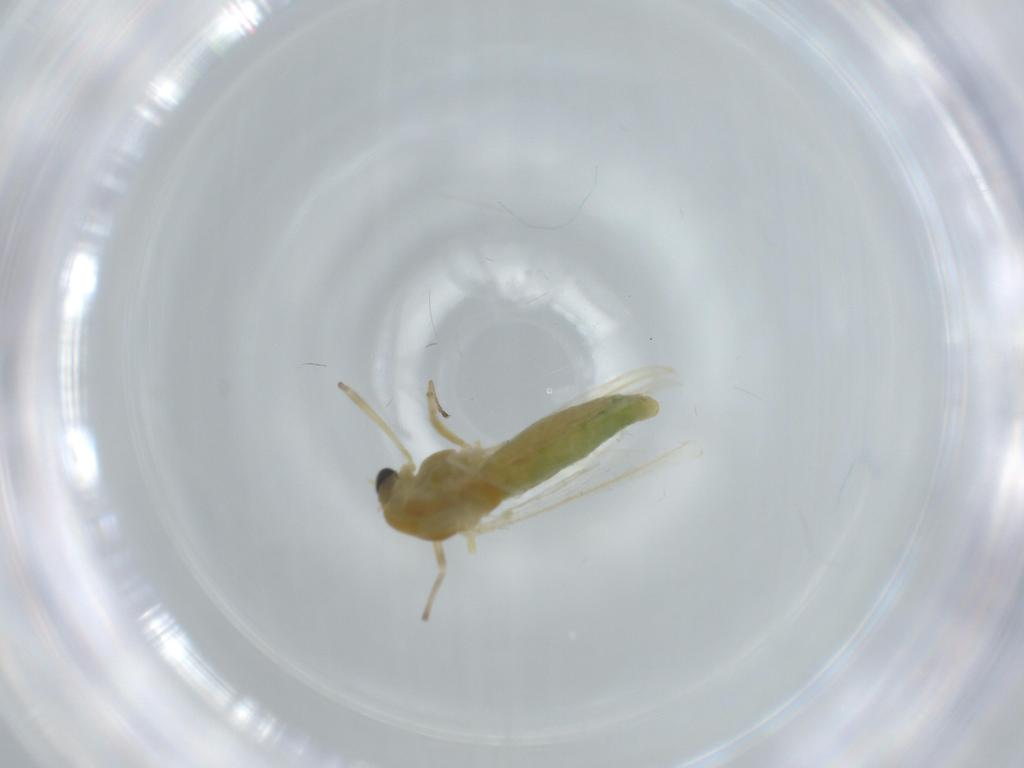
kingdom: Animalia
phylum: Arthropoda
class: Insecta
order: Diptera
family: Chironomidae
